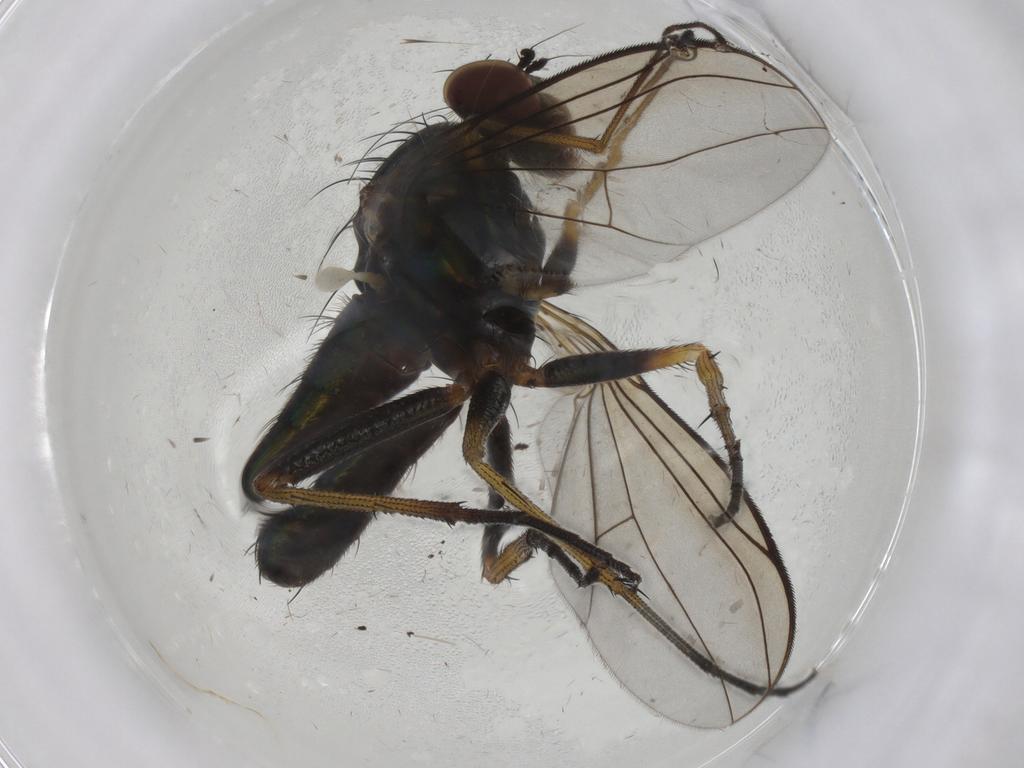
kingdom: Animalia
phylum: Arthropoda
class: Insecta
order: Diptera
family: Dolichopodidae
